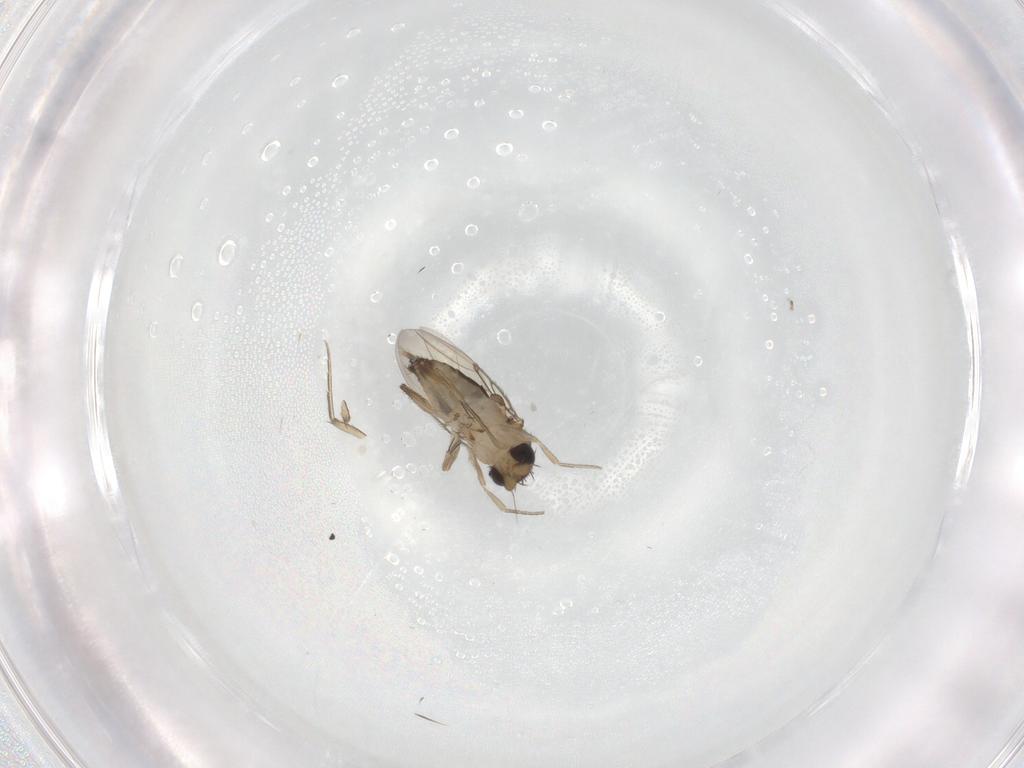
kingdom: Animalia
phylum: Arthropoda
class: Insecta
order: Diptera
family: Phoridae
